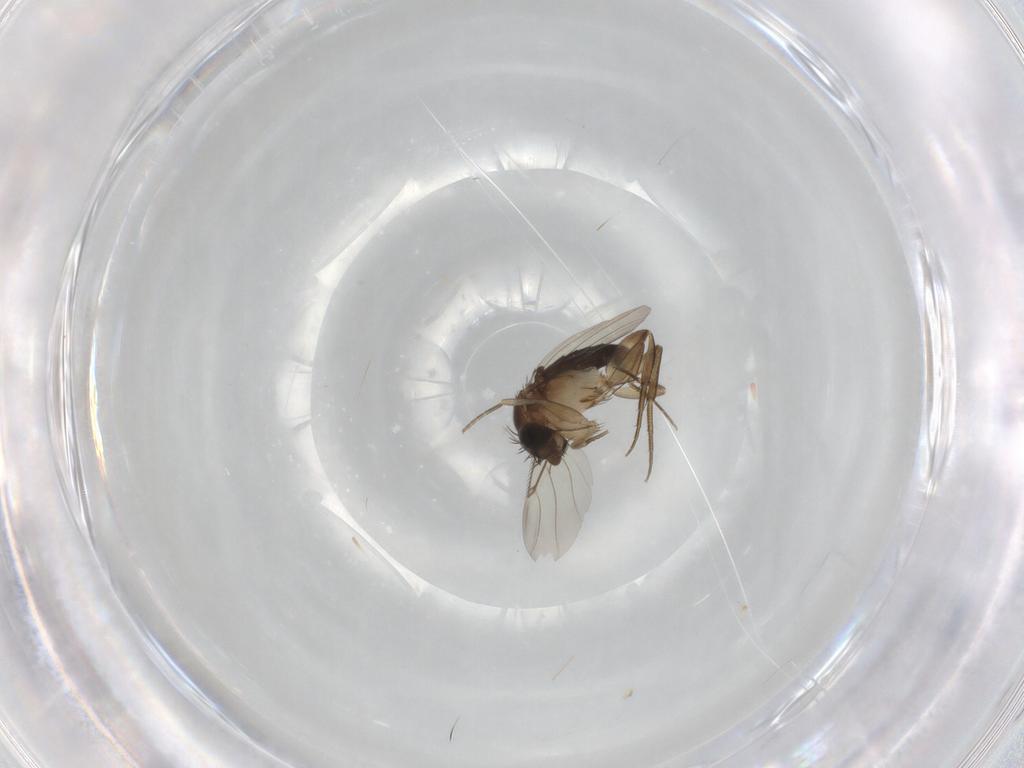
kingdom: Animalia
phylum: Arthropoda
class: Insecta
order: Diptera
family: Phoridae
